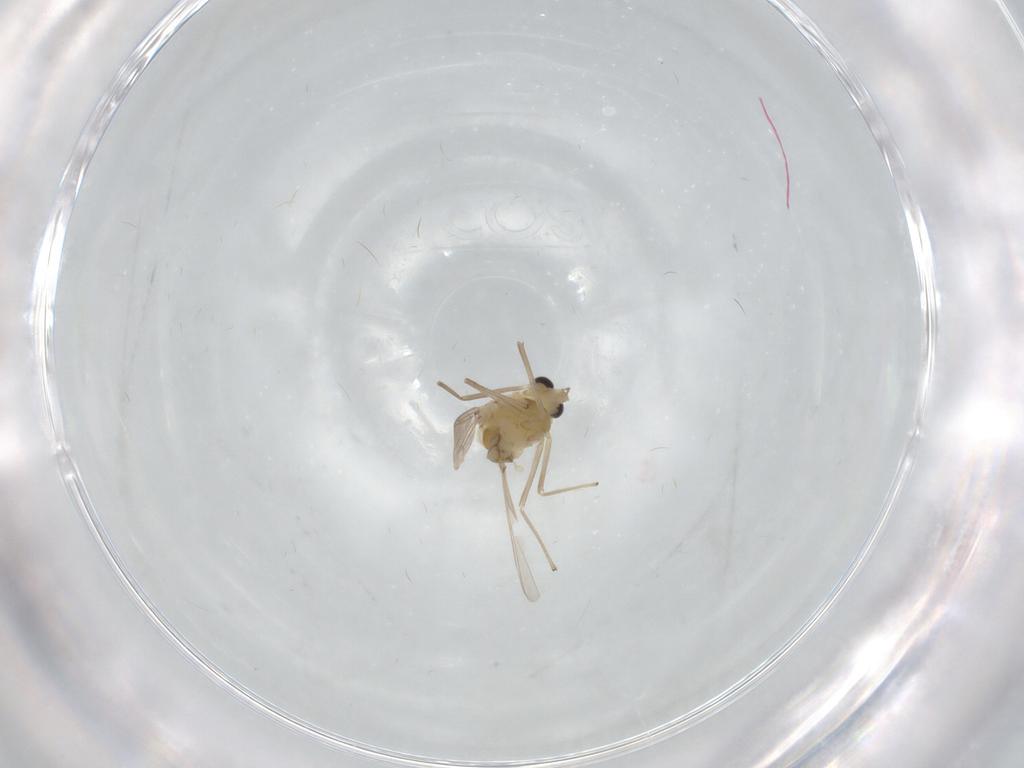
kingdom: Animalia
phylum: Arthropoda
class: Insecta
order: Diptera
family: Chironomidae
